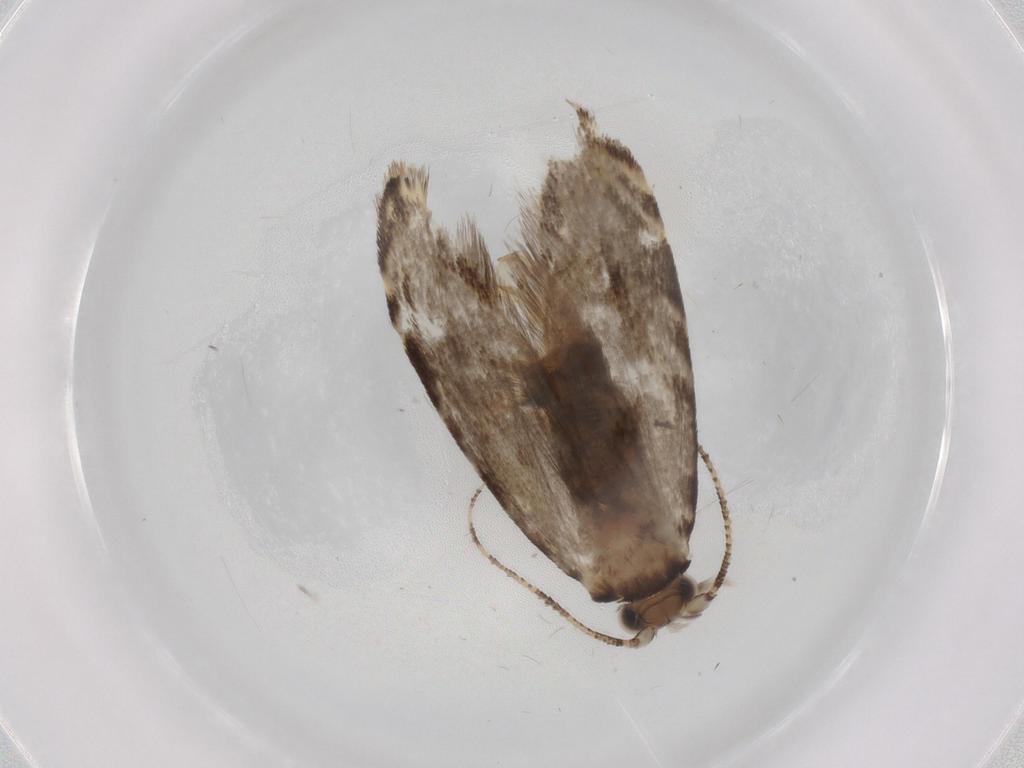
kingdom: Animalia
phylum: Arthropoda
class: Insecta
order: Lepidoptera
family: Tineidae
